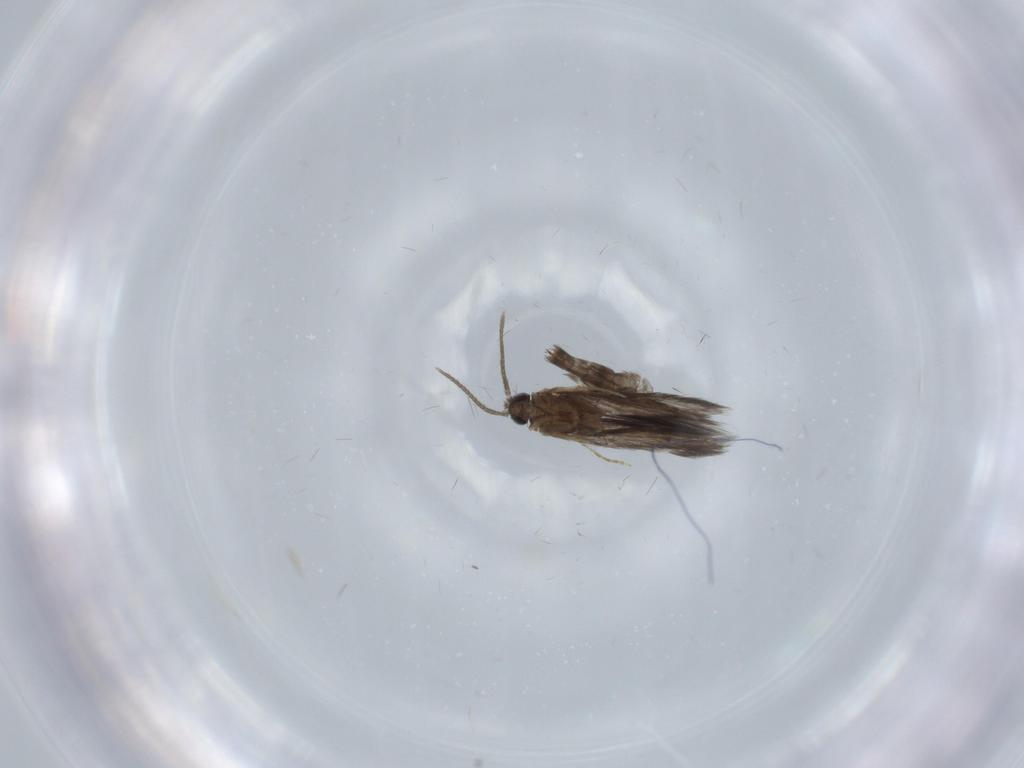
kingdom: Animalia
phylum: Arthropoda
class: Insecta
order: Trichoptera
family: Hydroptilidae
